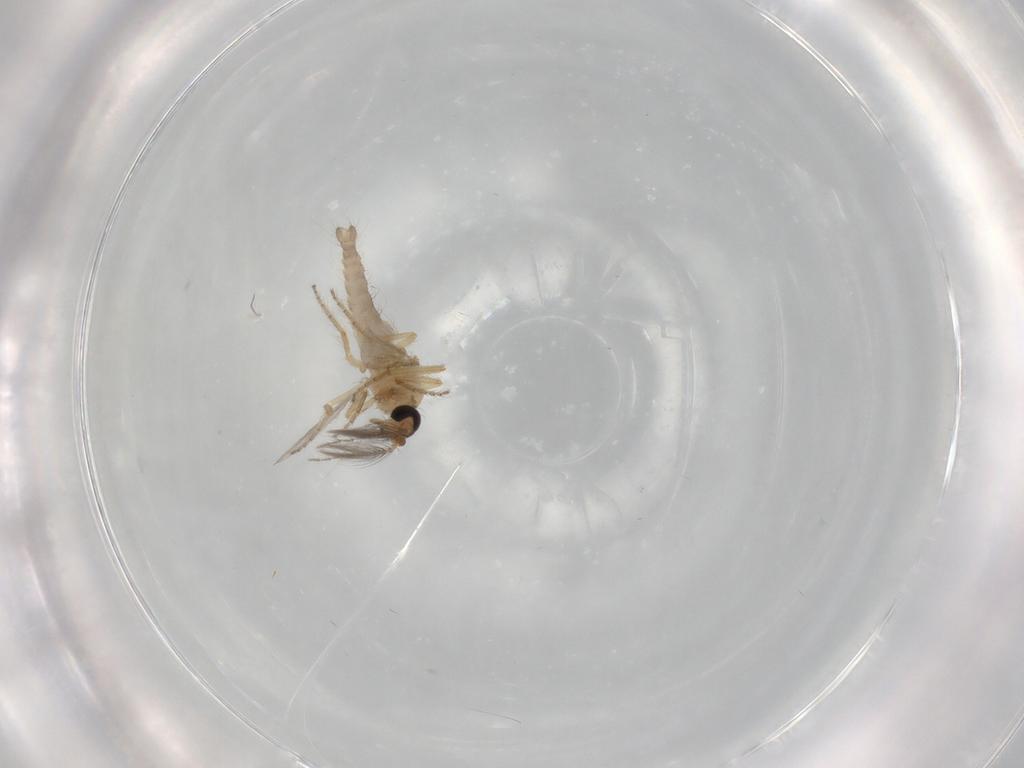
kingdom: Animalia
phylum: Arthropoda
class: Insecta
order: Diptera
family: Ceratopogonidae
